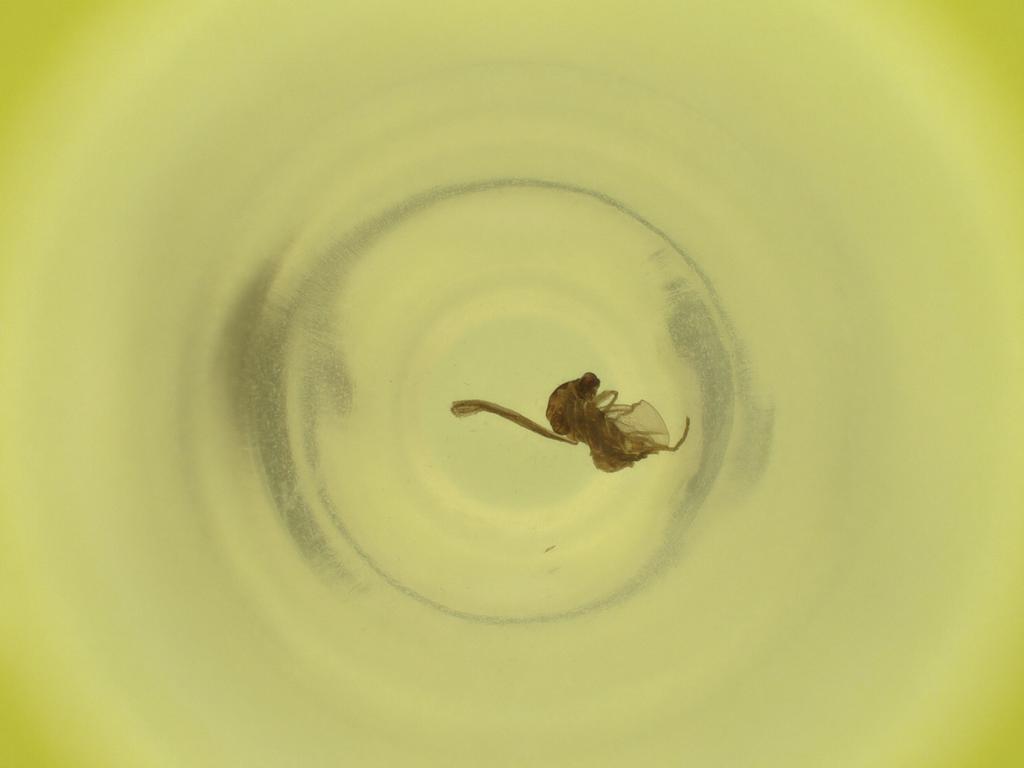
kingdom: Animalia
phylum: Arthropoda
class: Insecta
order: Diptera
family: Cecidomyiidae
